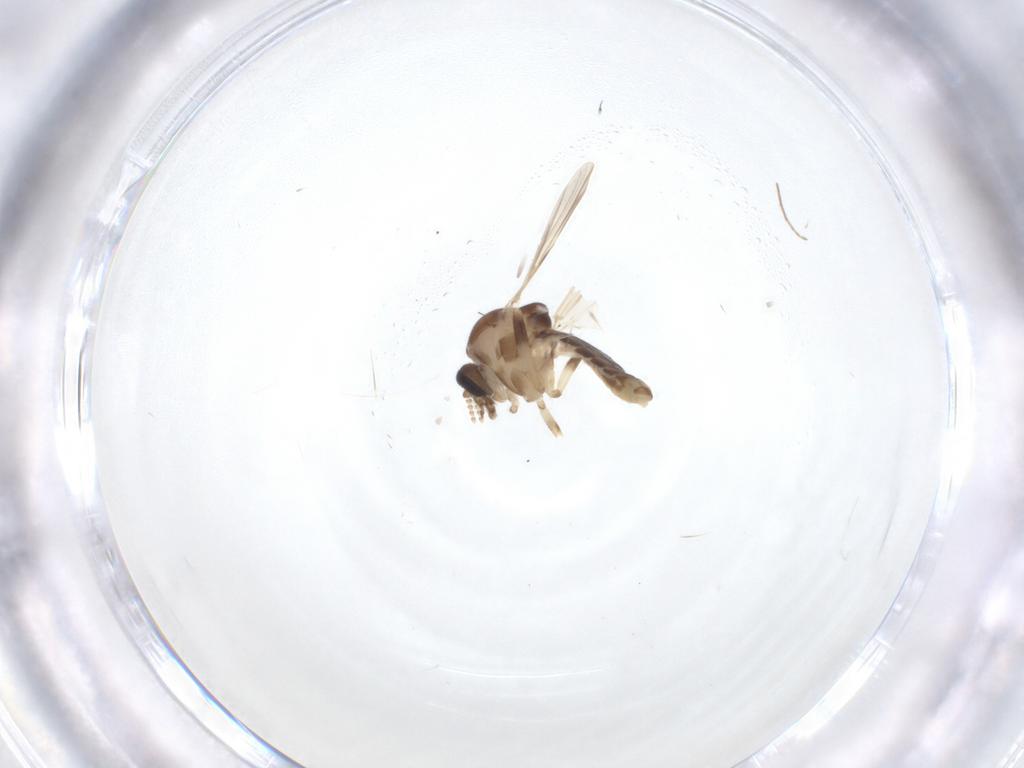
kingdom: Animalia
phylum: Arthropoda
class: Insecta
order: Diptera
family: Ceratopogonidae
